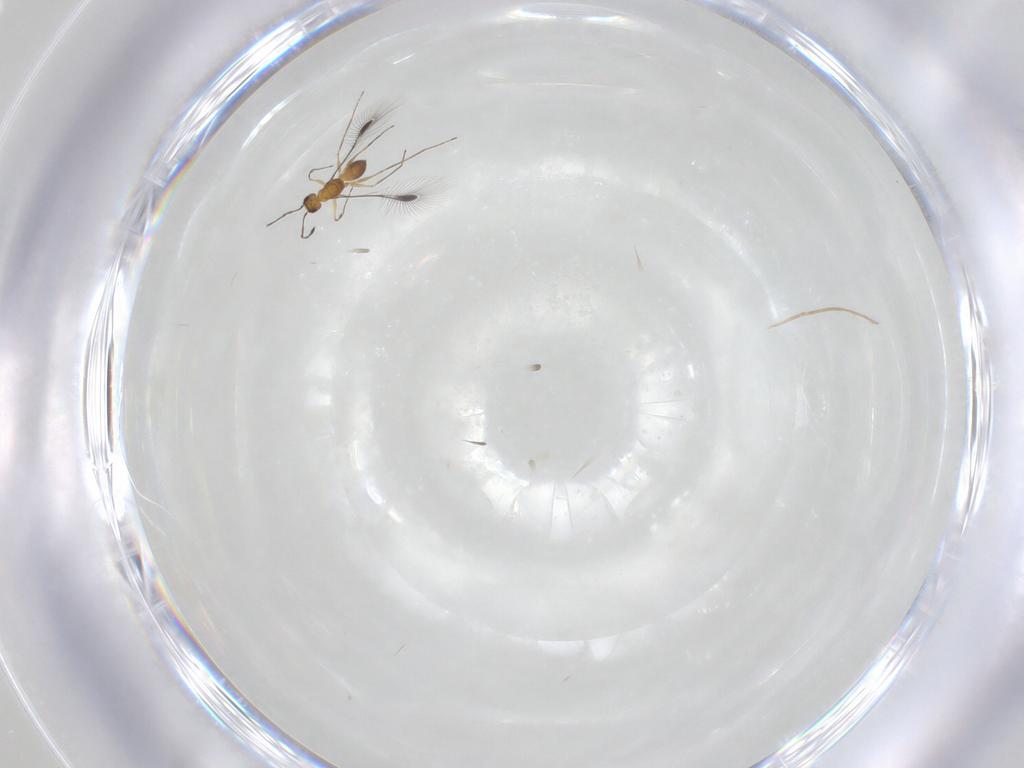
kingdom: Animalia
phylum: Arthropoda
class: Insecta
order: Hymenoptera
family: Mymaridae
